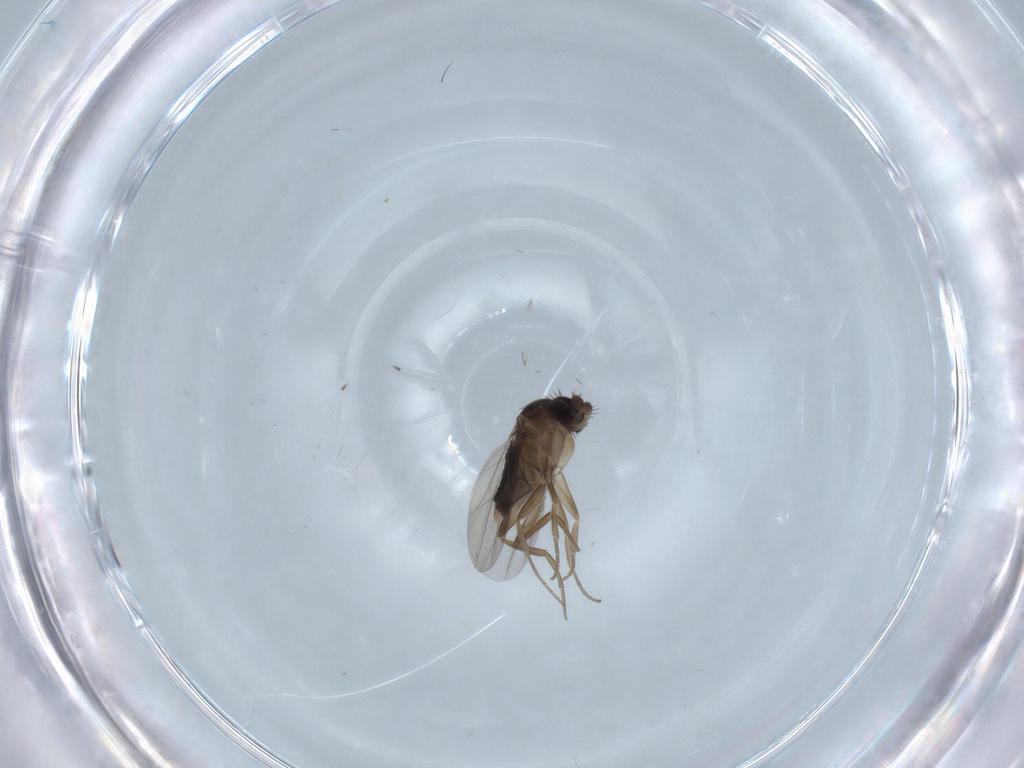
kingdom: Animalia
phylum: Arthropoda
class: Insecta
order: Diptera
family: Phoridae
